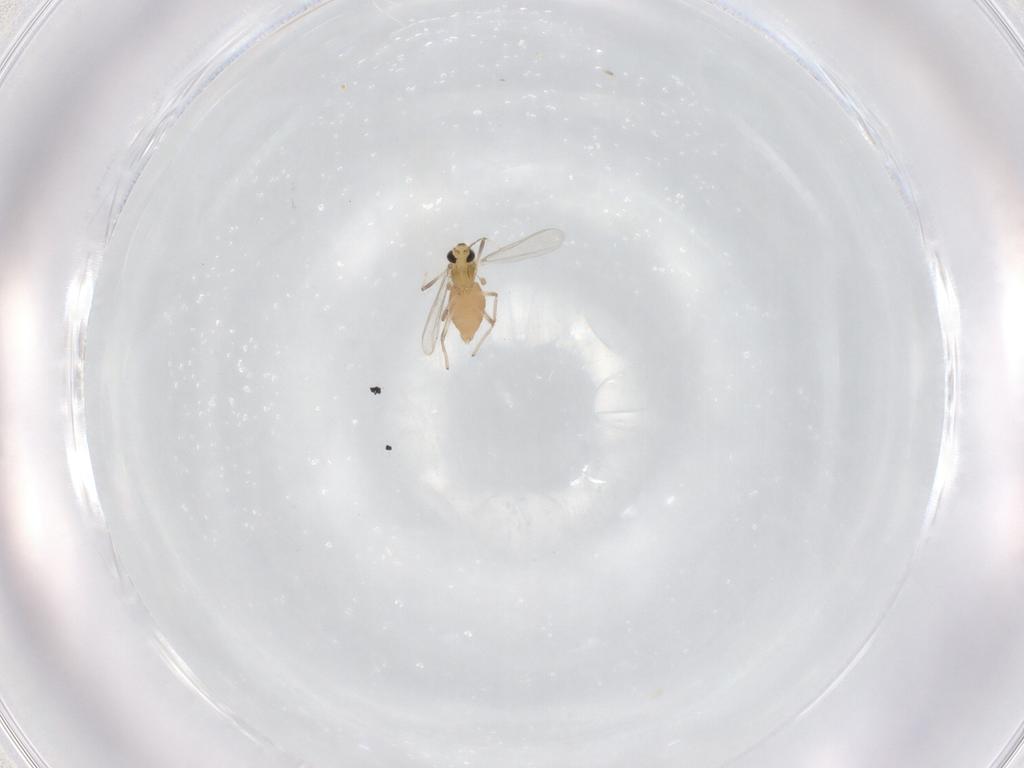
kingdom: Animalia
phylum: Arthropoda
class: Insecta
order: Diptera
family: Chironomidae
